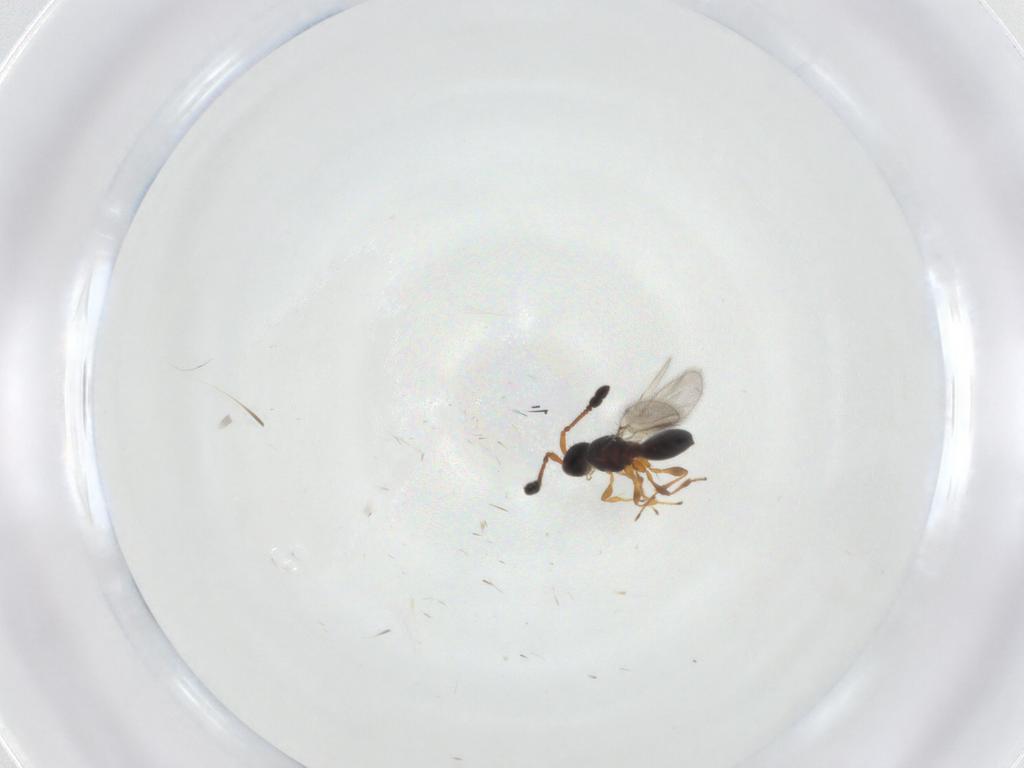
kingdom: Animalia
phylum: Arthropoda
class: Insecta
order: Hymenoptera
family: Diapriidae
